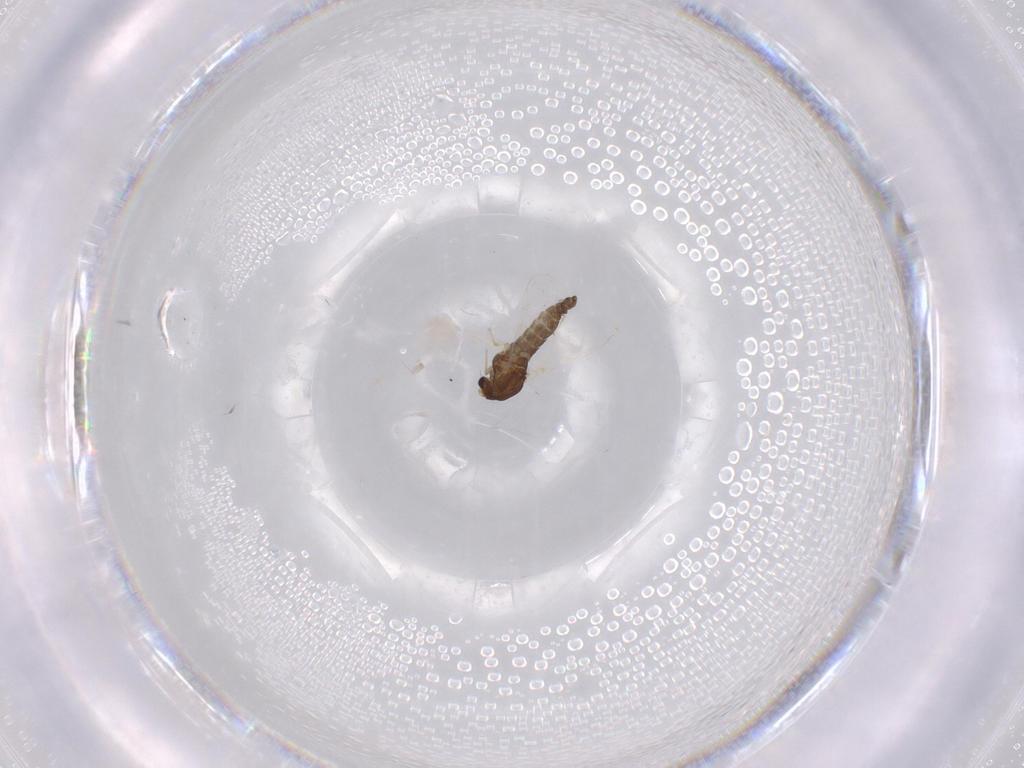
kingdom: Animalia
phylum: Arthropoda
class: Insecta
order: Diptera
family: Chironomidae
